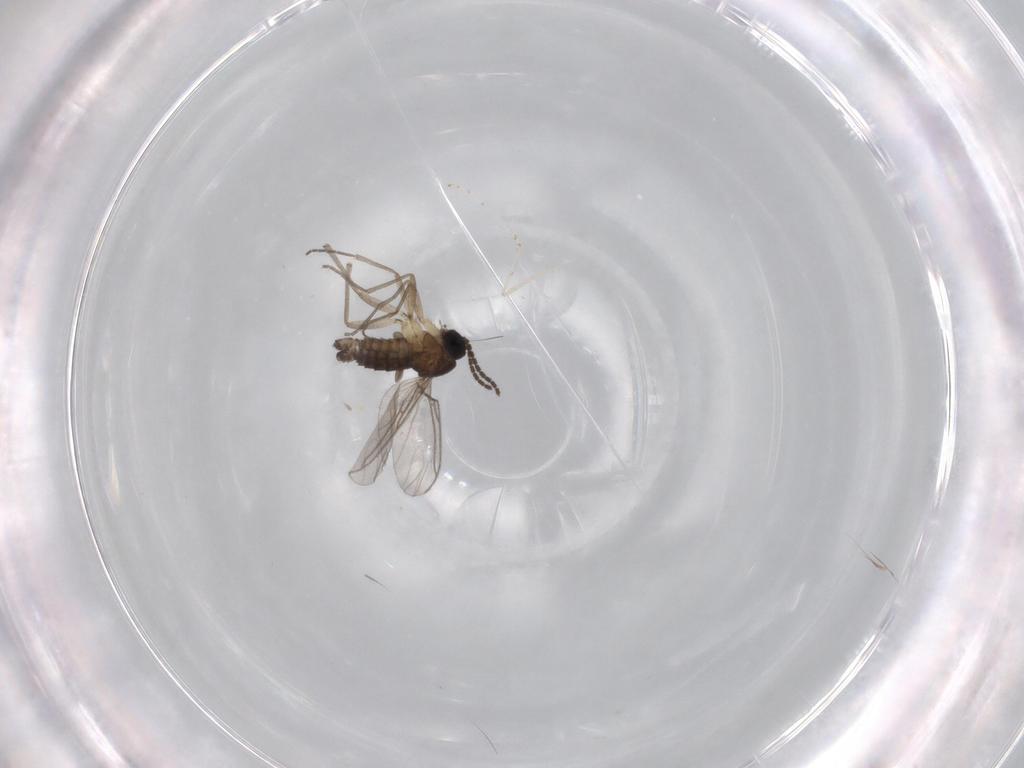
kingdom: Animalia
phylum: Arthropoda
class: Insecta
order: Diptera
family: Sciaridae
